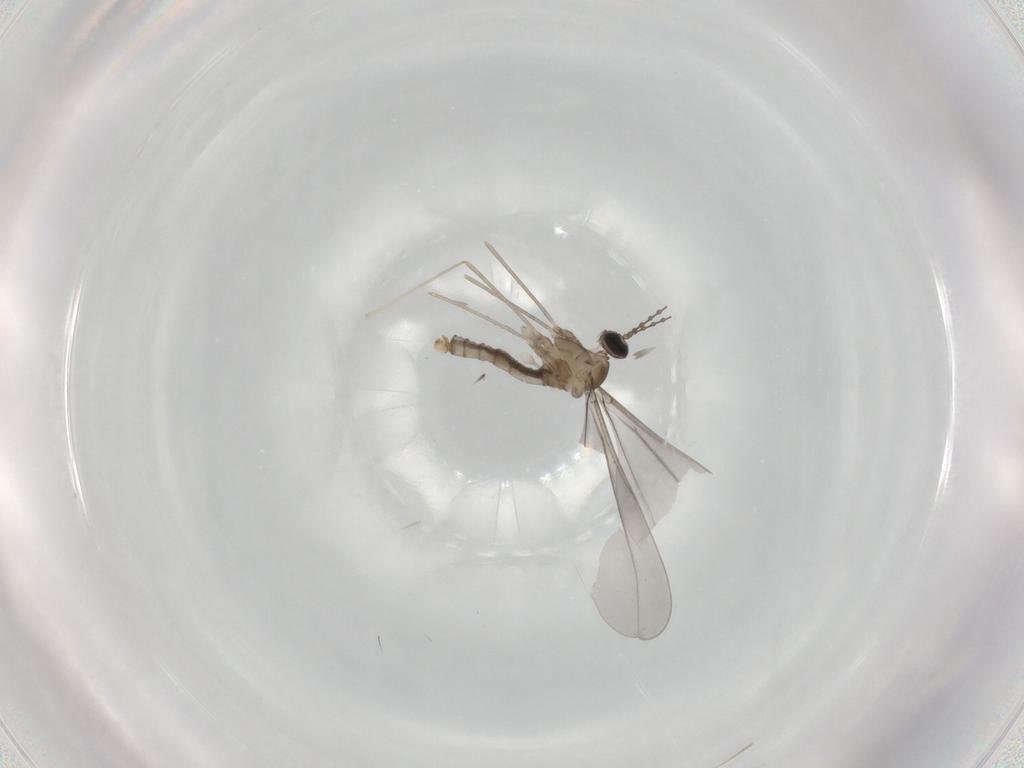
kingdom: Animalia
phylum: Arthropoda
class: Insecta
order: Diptera
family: Cecidomyiidae
